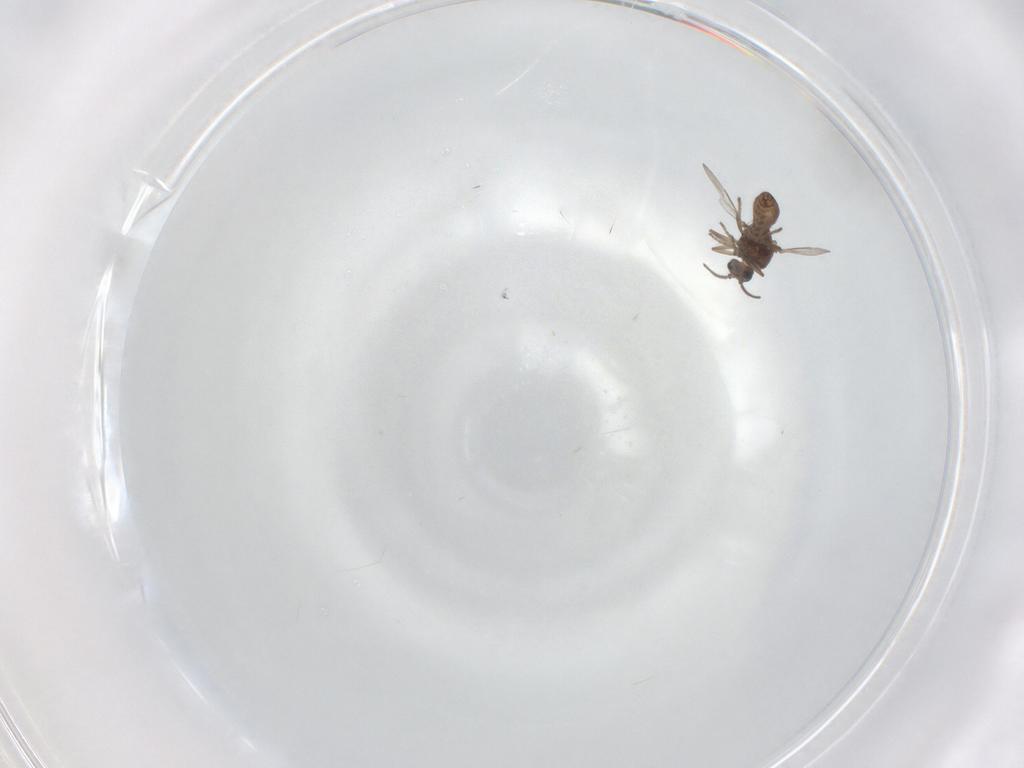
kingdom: Animalia
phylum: Arthropoda
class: Insecta
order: Diptera
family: Ceratopogonidae
